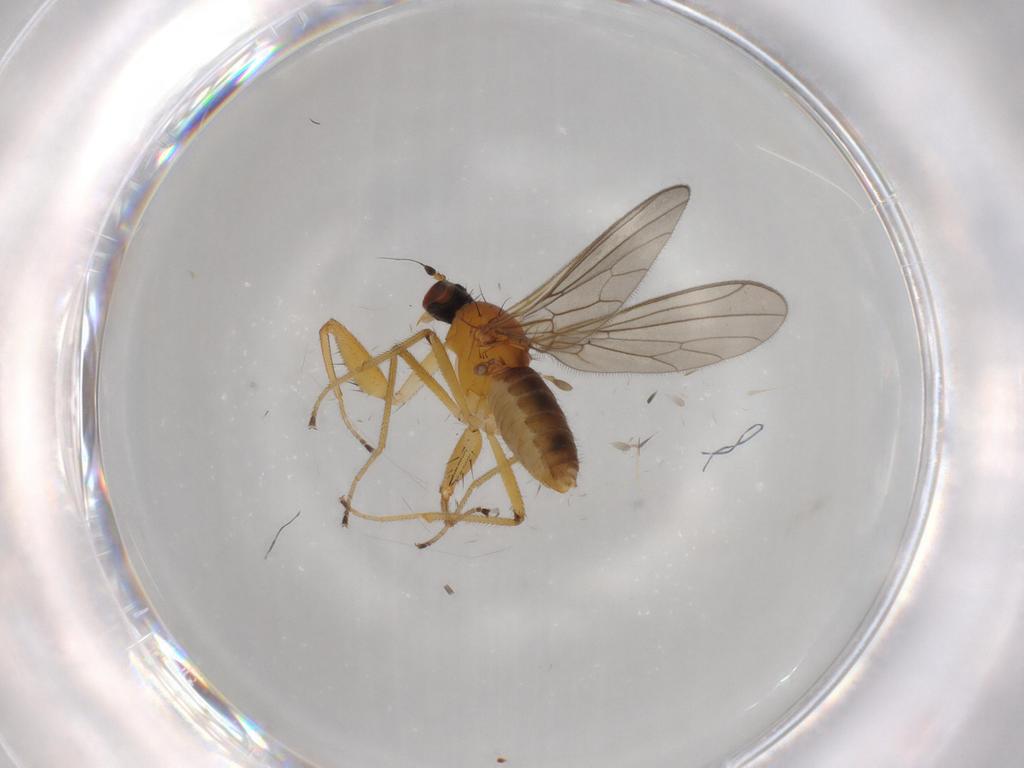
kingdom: Animalia
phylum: Arthropoda
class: Insecta
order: Diptera
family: Empididae
